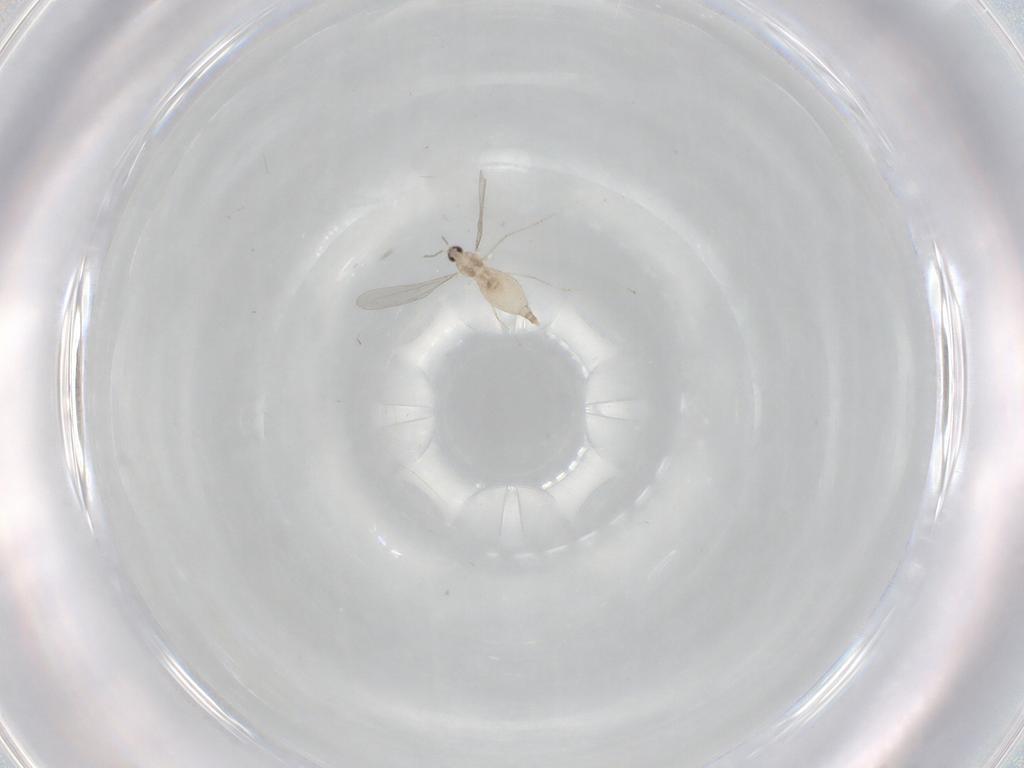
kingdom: Animalia
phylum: Arthropoda
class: Insecta
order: Diptera
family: Cecidomyiidae
